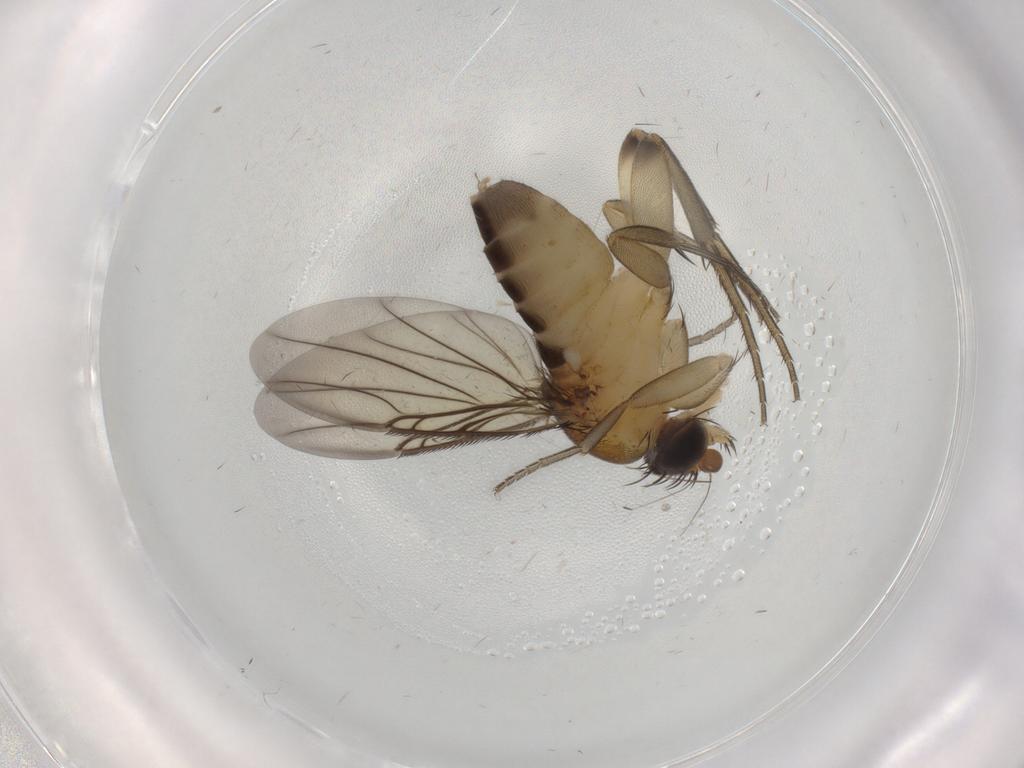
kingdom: Animalia
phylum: Arthropoda
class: Insecta
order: Diptera
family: Phoridae
